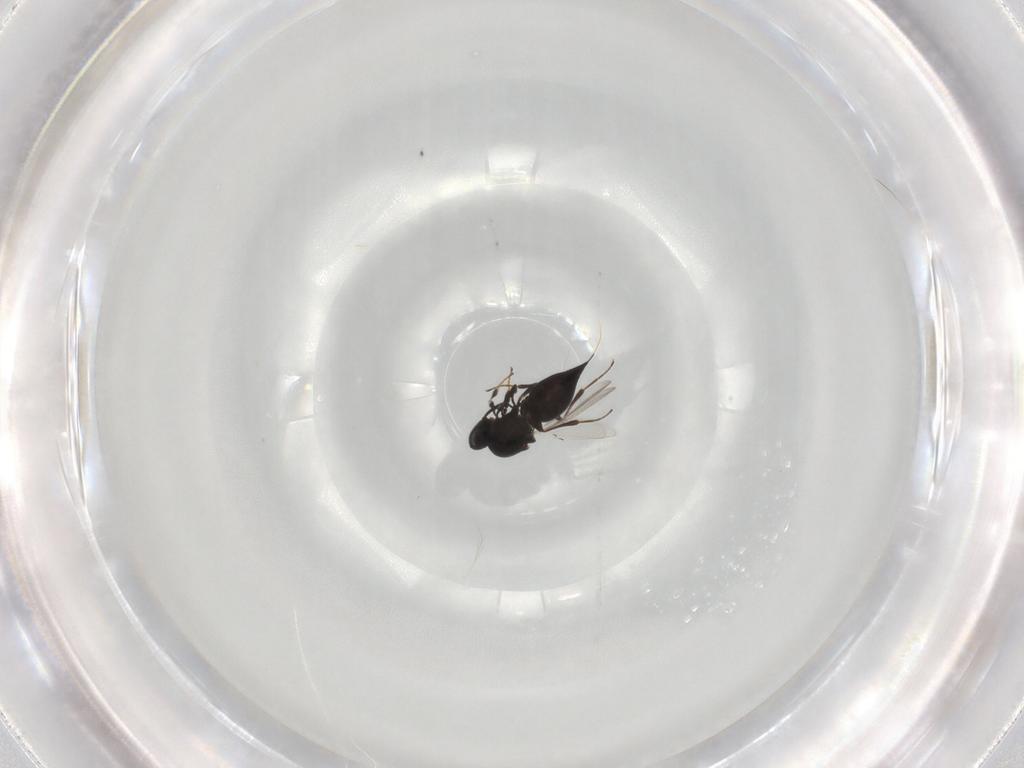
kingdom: Animalia
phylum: Arthropoda
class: Insecta
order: Hymenoptera
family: Platygastridae
